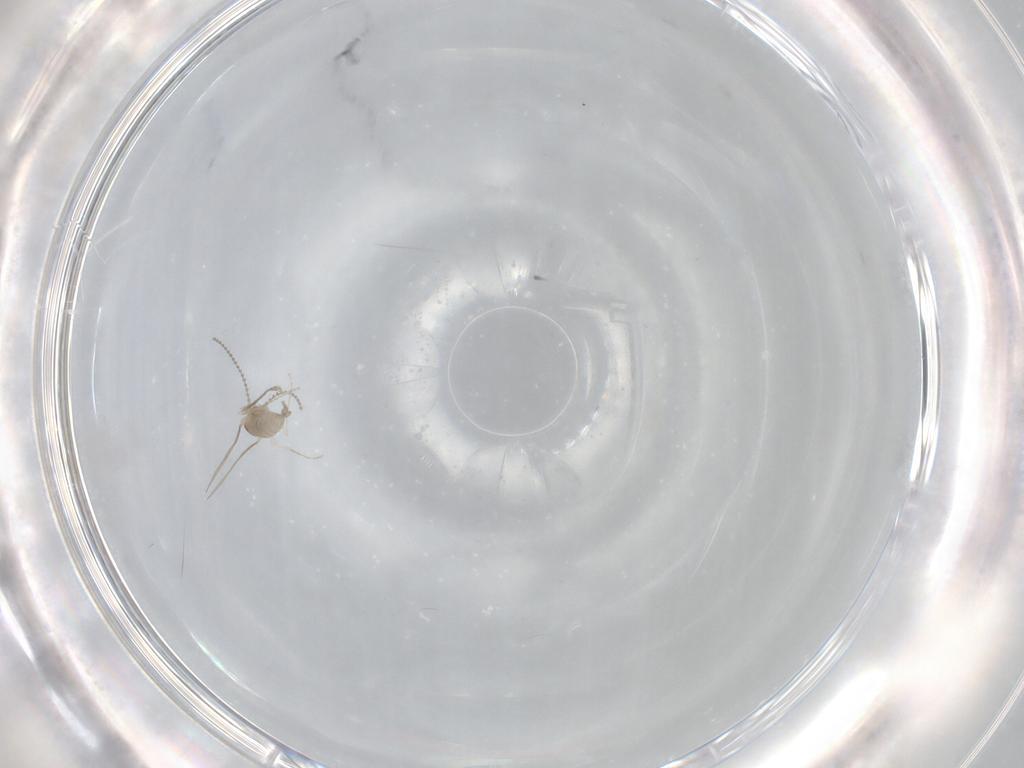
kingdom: Animalia
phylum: Arthropoda
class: Insecta
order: Diptera
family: Cecidomyiidae
